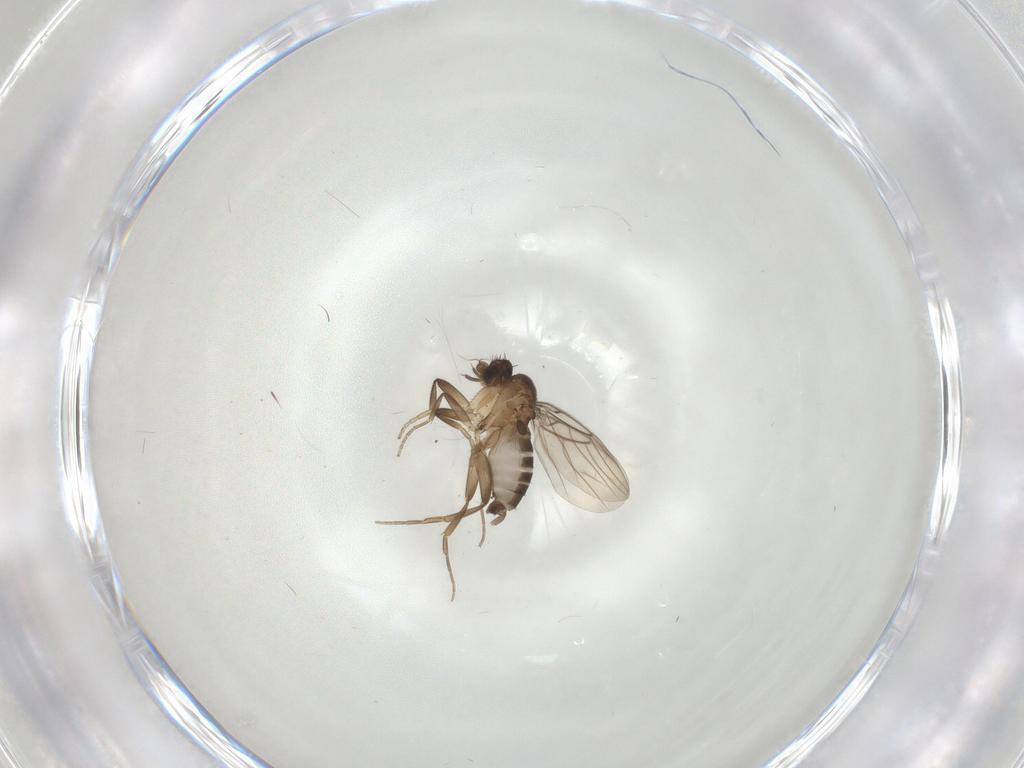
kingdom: Animalia
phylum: Arthropoda
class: Insecta
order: Diptera
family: Phoridae
